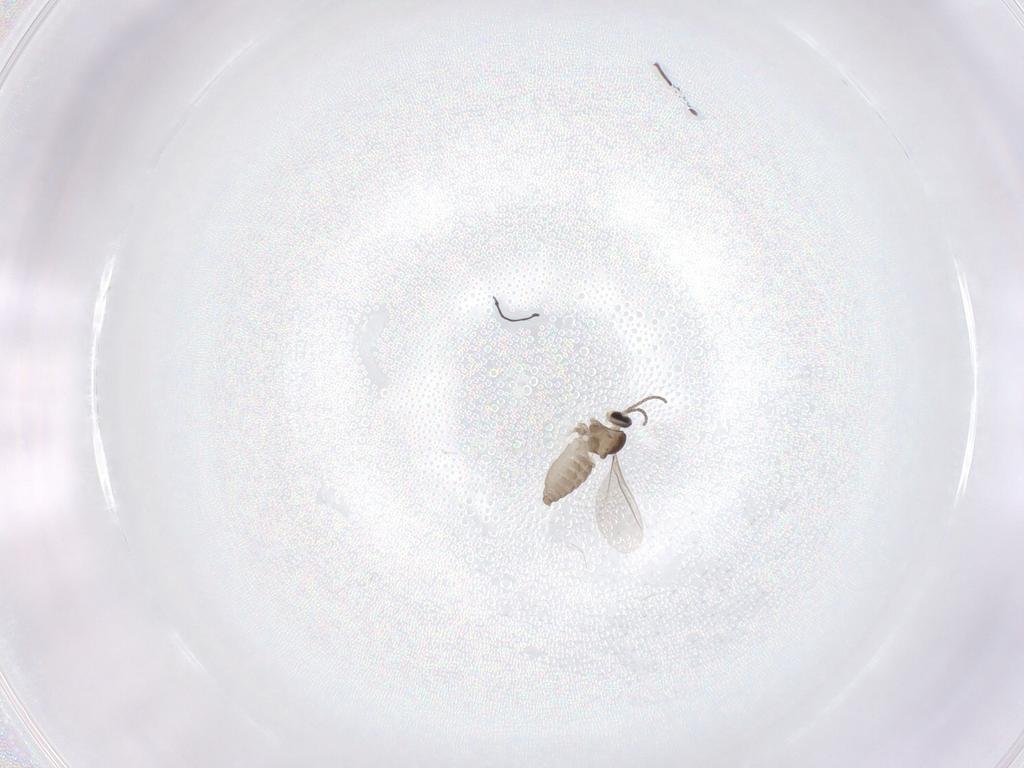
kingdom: Animalia
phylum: Arthropoda
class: Insecta
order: Diptera
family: Cecidomyiidae
